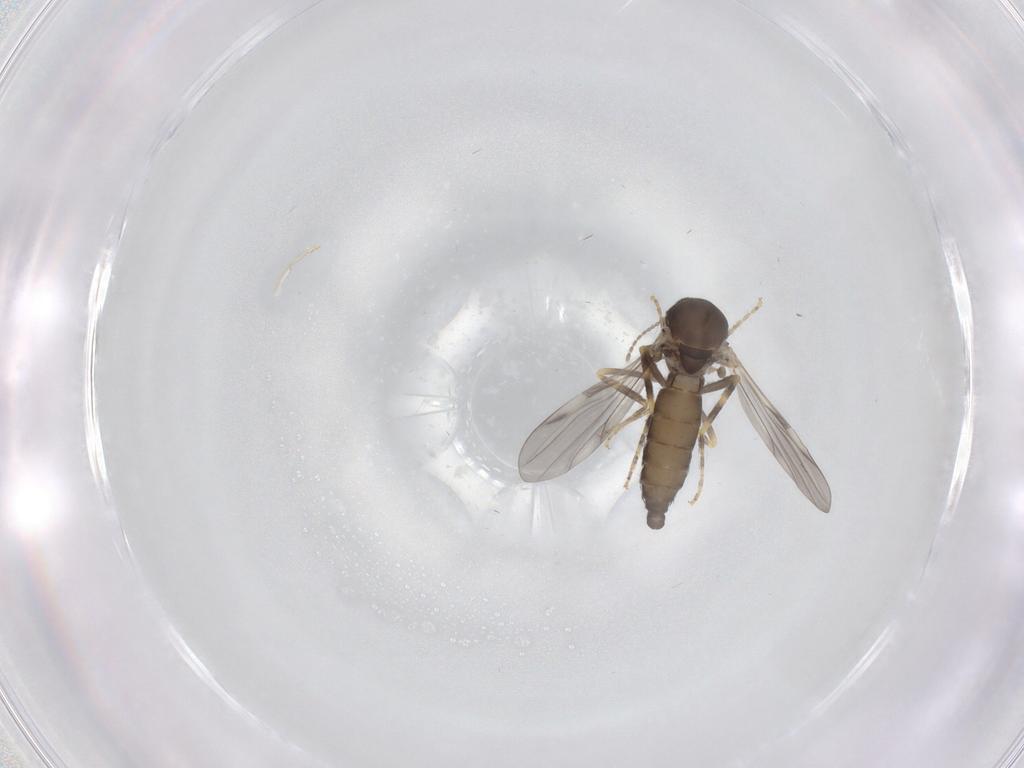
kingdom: Animalia
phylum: Arthropoda
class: Insecta
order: Diptera
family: Ceratopogonidae
